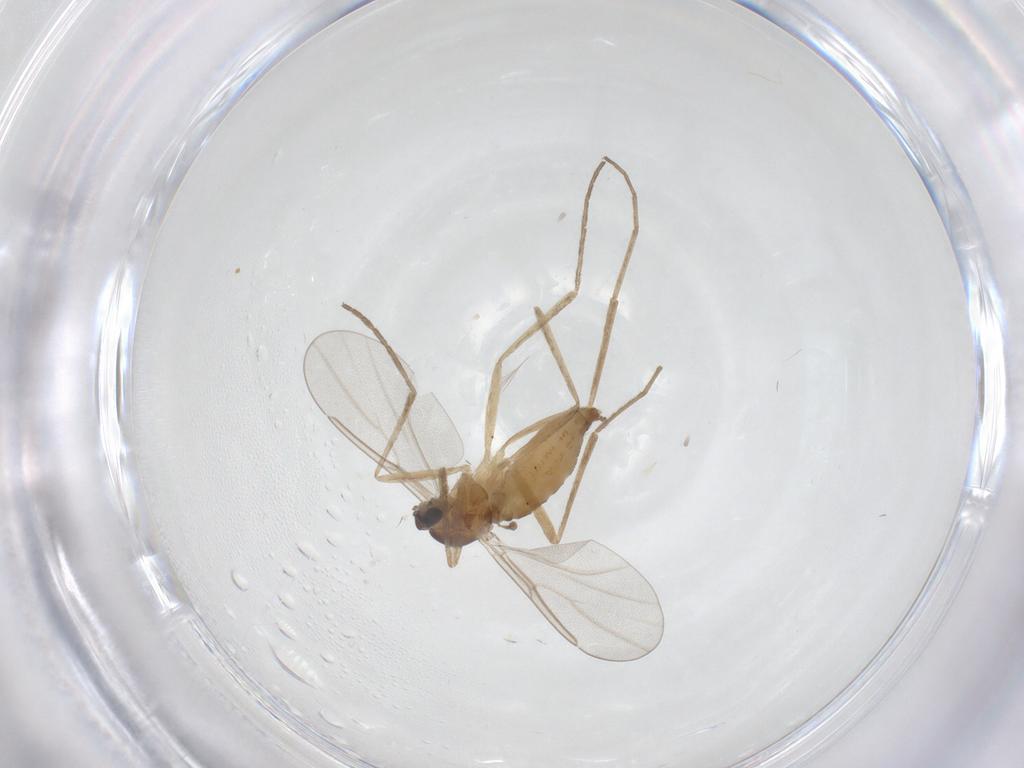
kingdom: Animalia
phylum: Arthropoda
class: Insecta
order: Diptera
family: Cecidomyiidae
